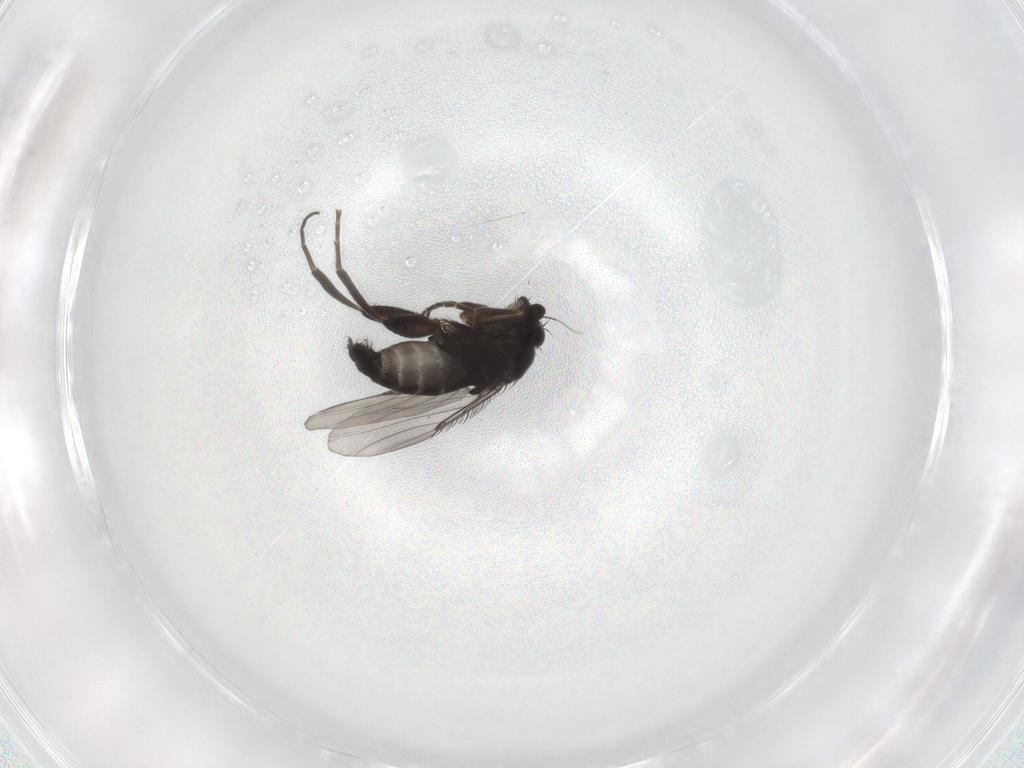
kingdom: Animalia
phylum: Arthropoda
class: Insecta
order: Diptera
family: Phoridae
